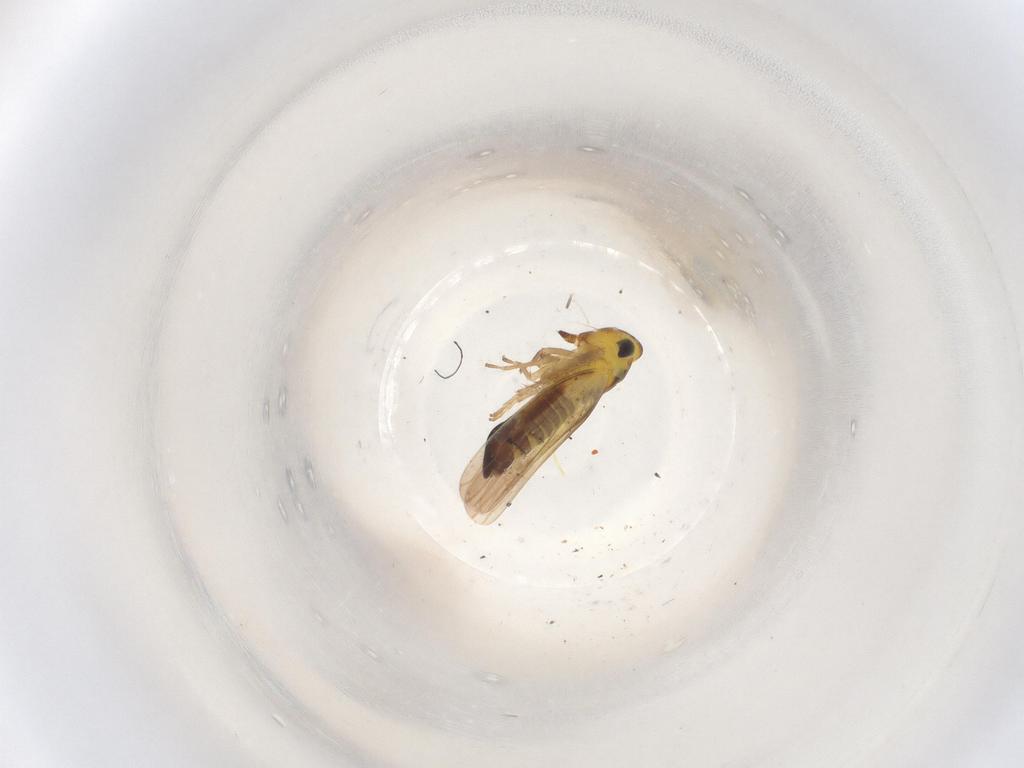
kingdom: Animalia
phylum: Arthropoda
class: Insecta
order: Hemiptera
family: Cicadellidae
